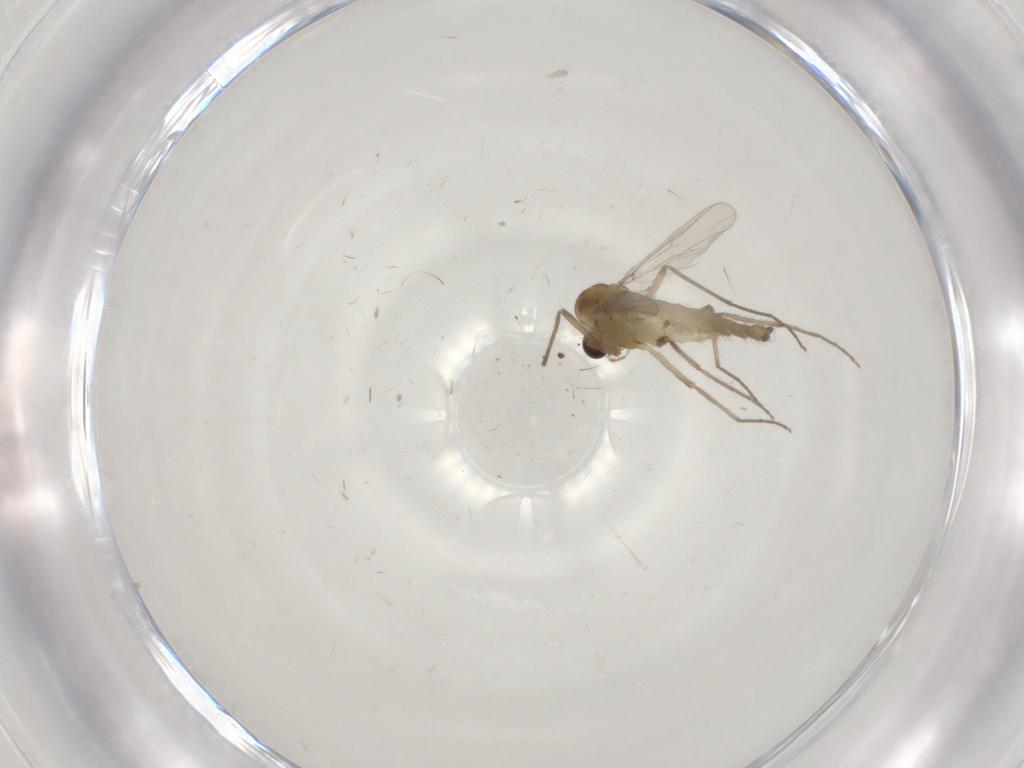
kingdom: Animalia
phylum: Arthropoda
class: Insecta
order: Diptera
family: Chironomidae
